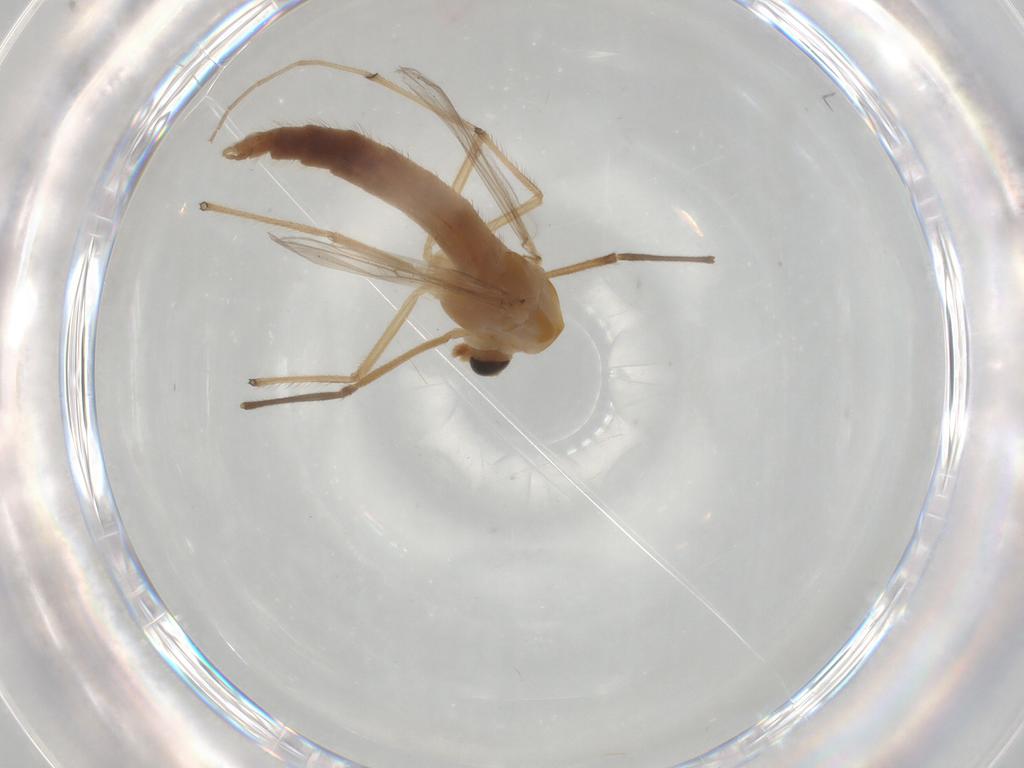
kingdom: Animalia
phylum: Arthropoda
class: Insecta
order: Diptera
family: Chironomidae
